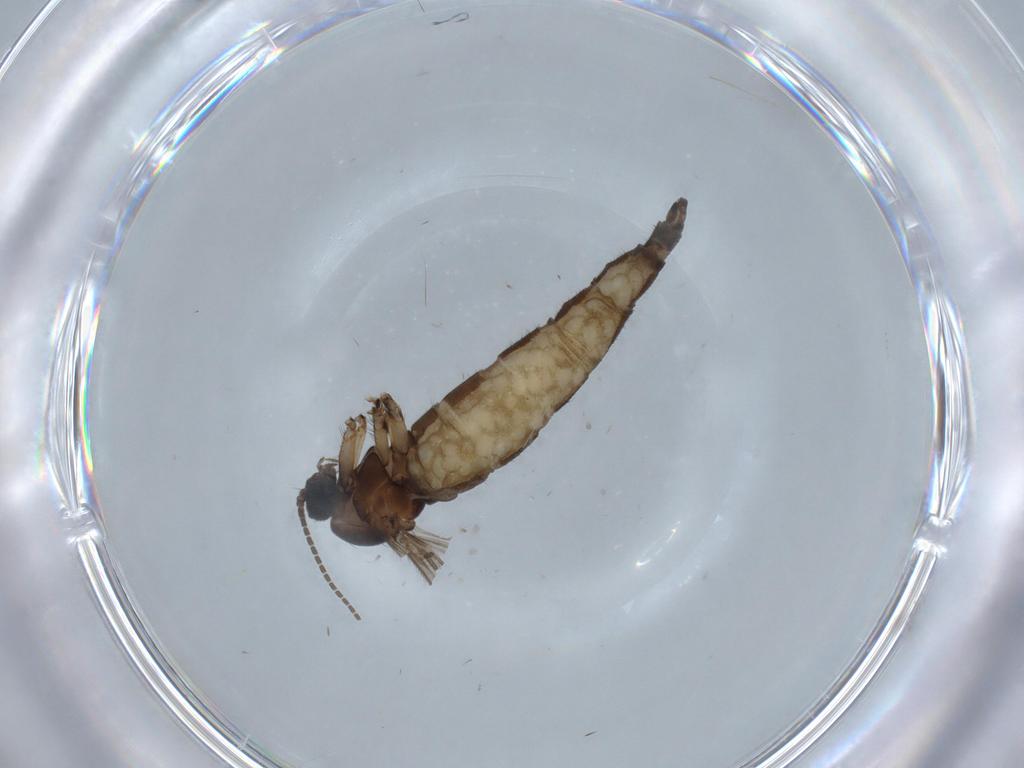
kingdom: Animalia
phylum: Arthropoda
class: Insecta
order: Diptera
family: Sciaridae
